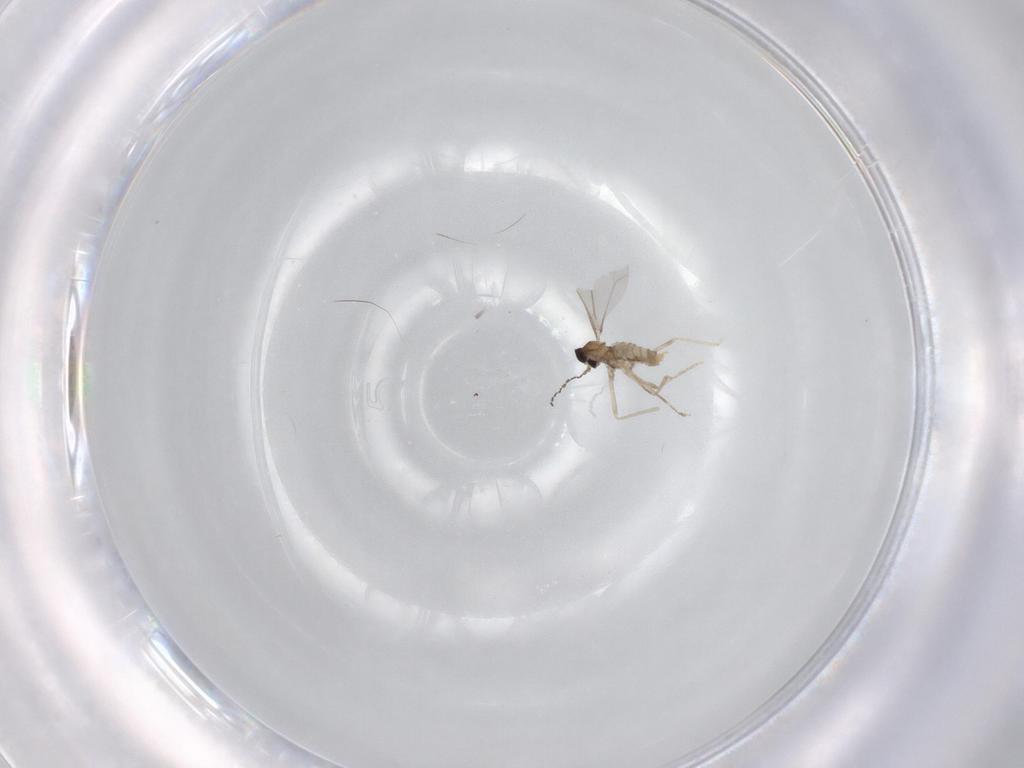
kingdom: Animalia
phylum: Arthropoda
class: Insecta
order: Diptera
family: Cecidomyiidae
